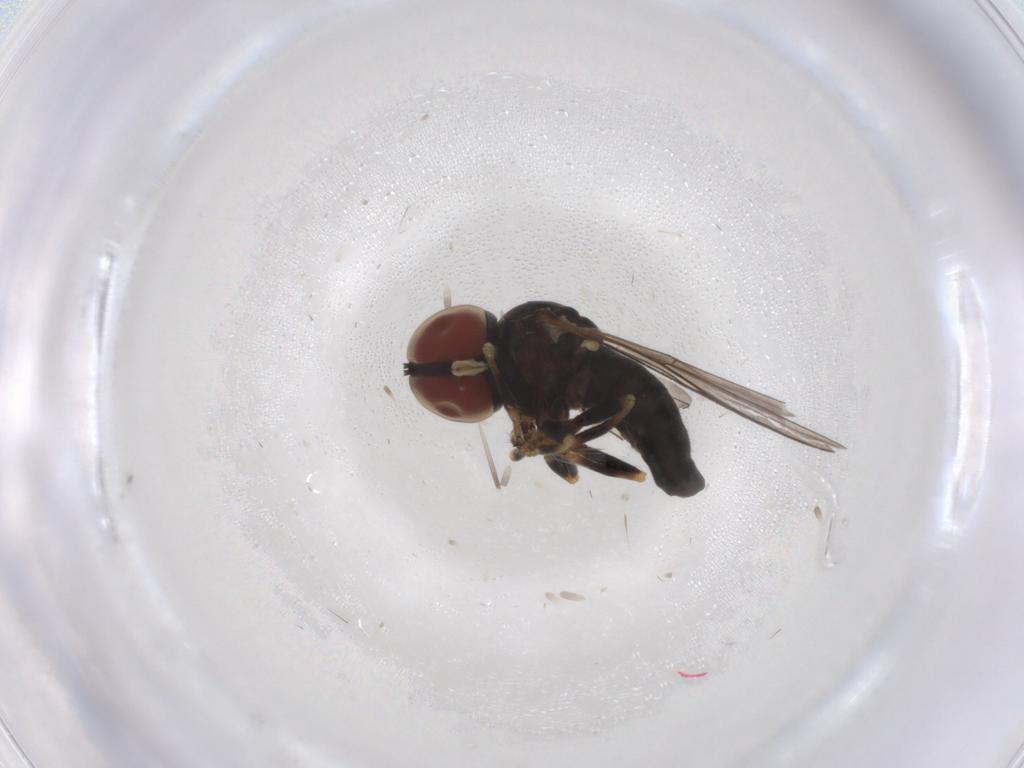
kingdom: Animalia
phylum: Arthropoda
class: Insecta
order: Diptera
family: Pipunculidae
